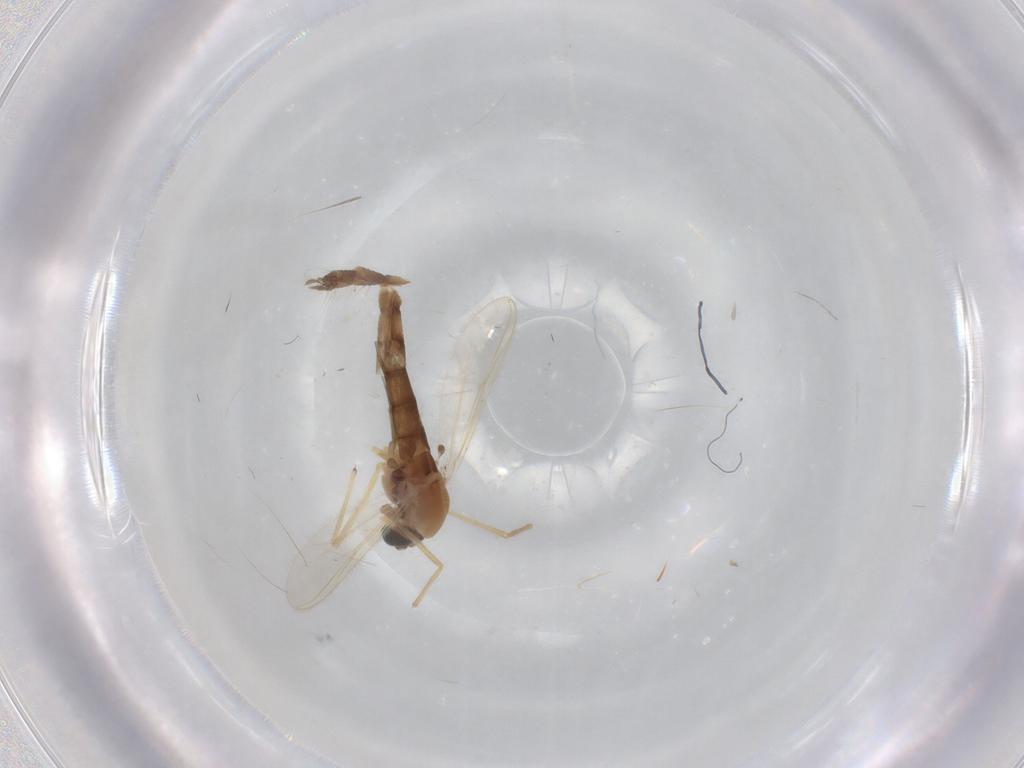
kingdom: Animalia
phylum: Arthropoda
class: Insecta
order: Diptera
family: Chironomidae
